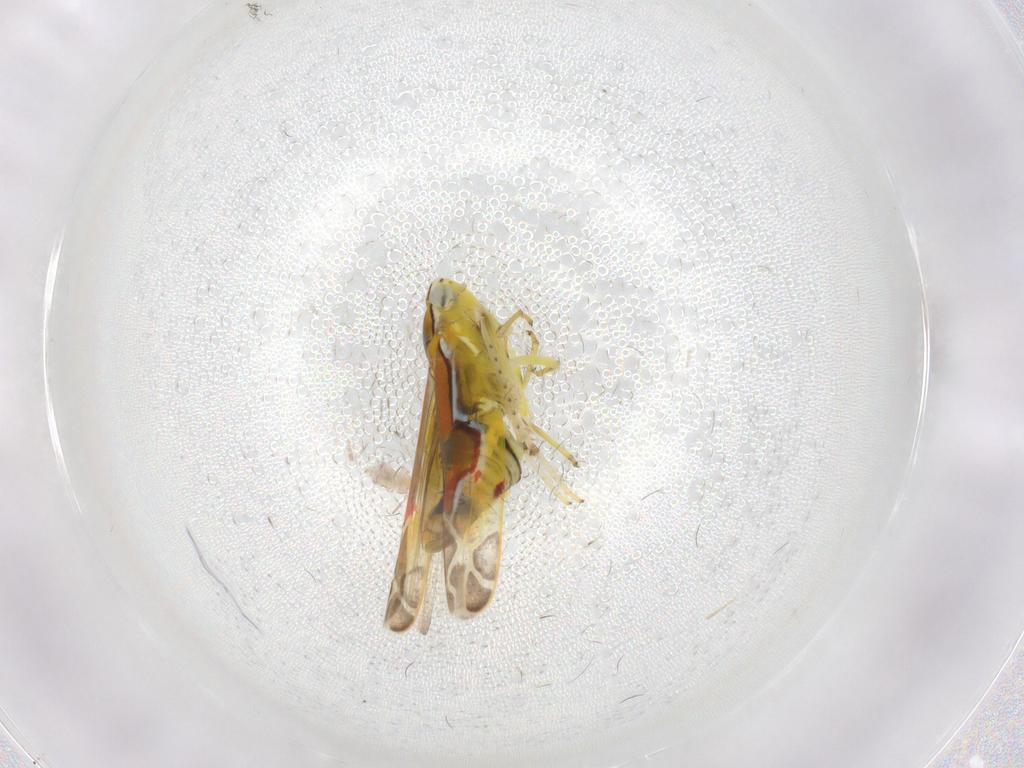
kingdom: Animalia
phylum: Arthropoda
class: Insecta
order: Hemiptera
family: Cicadellidae
